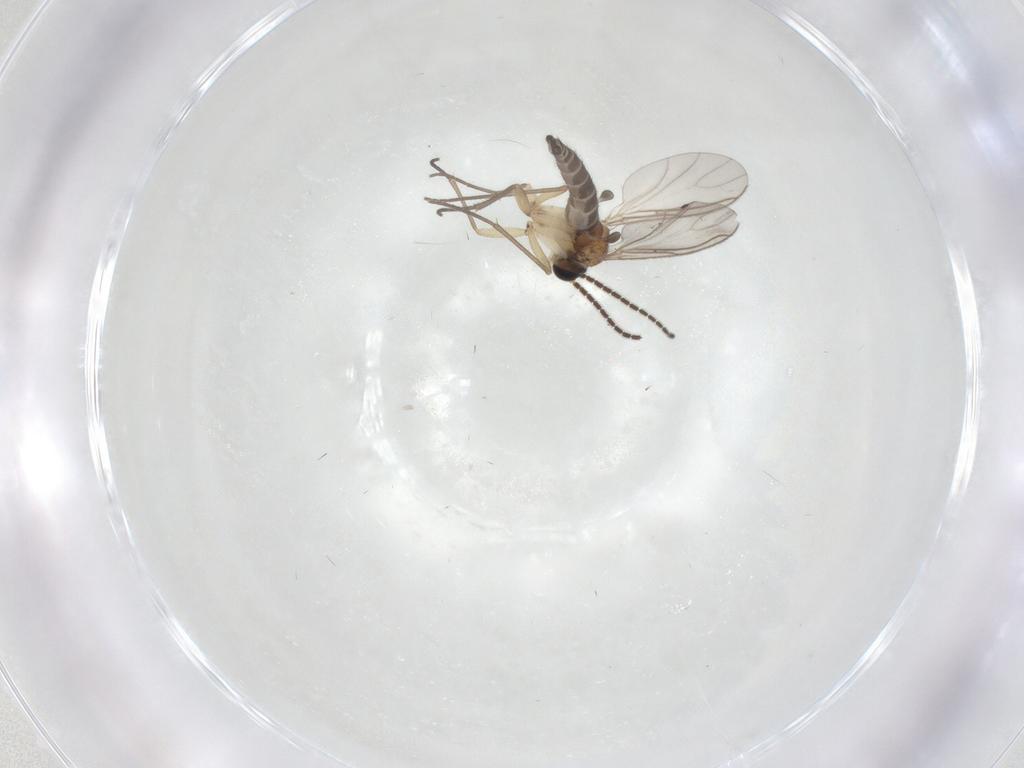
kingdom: Animalia
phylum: Arthropoda
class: Insecta
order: Diptera
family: Sciaridae
